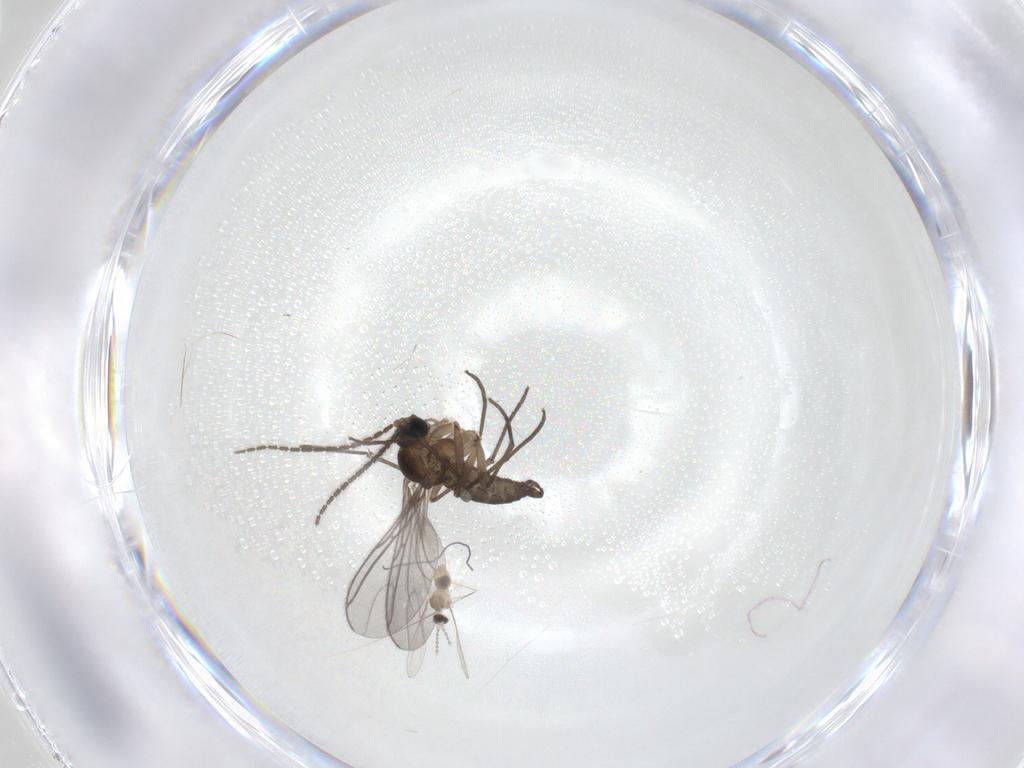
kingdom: Animalia
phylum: Arthropoda
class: Insecta
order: Diptera
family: Sciaridae
